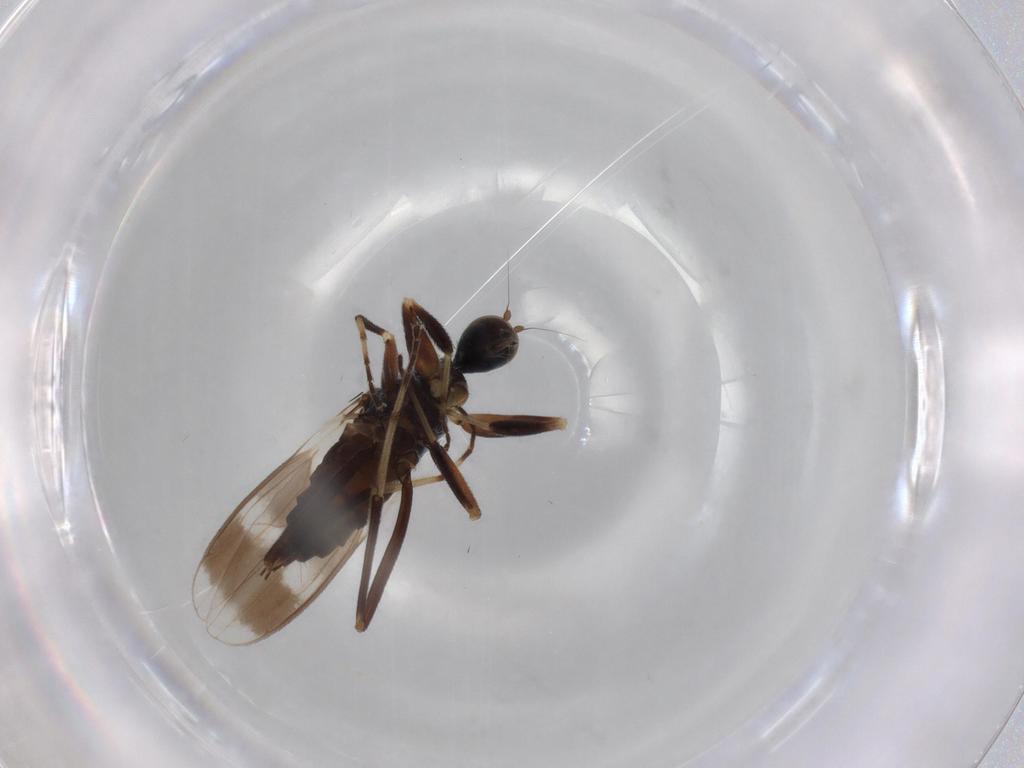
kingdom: Animalia
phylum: Arthropoda
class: Insecta
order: Diptera
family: Hybotidae
